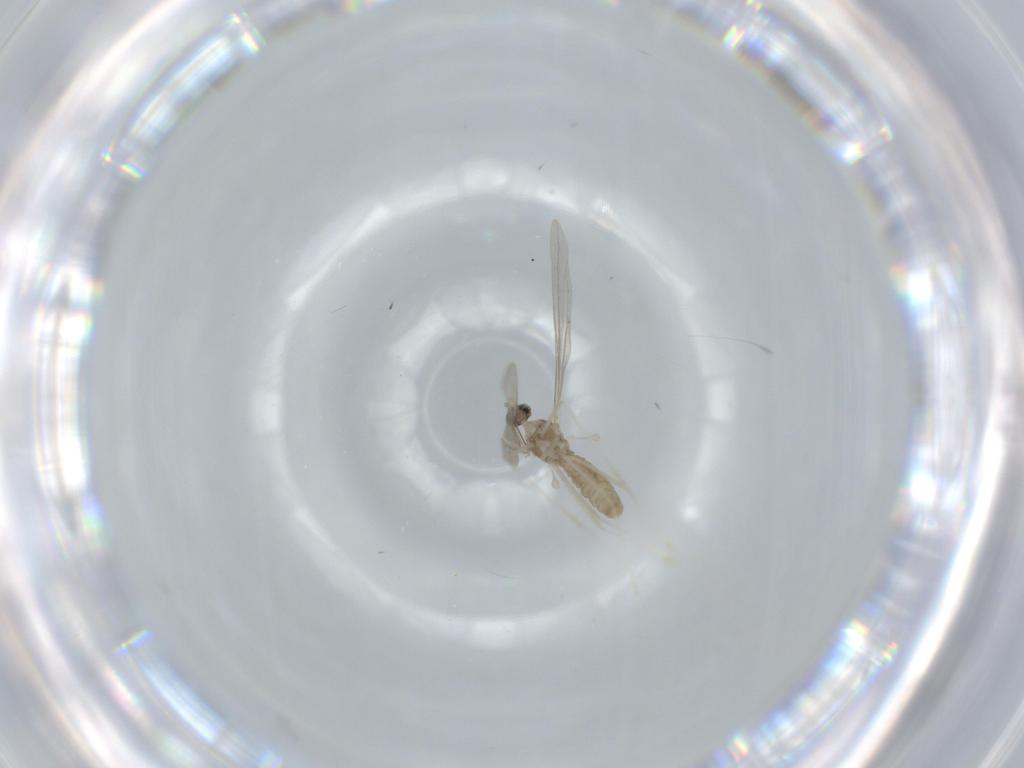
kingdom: Animalia
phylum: Arthropoda
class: Insecta
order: Diptera
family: Cecidomyiidae
